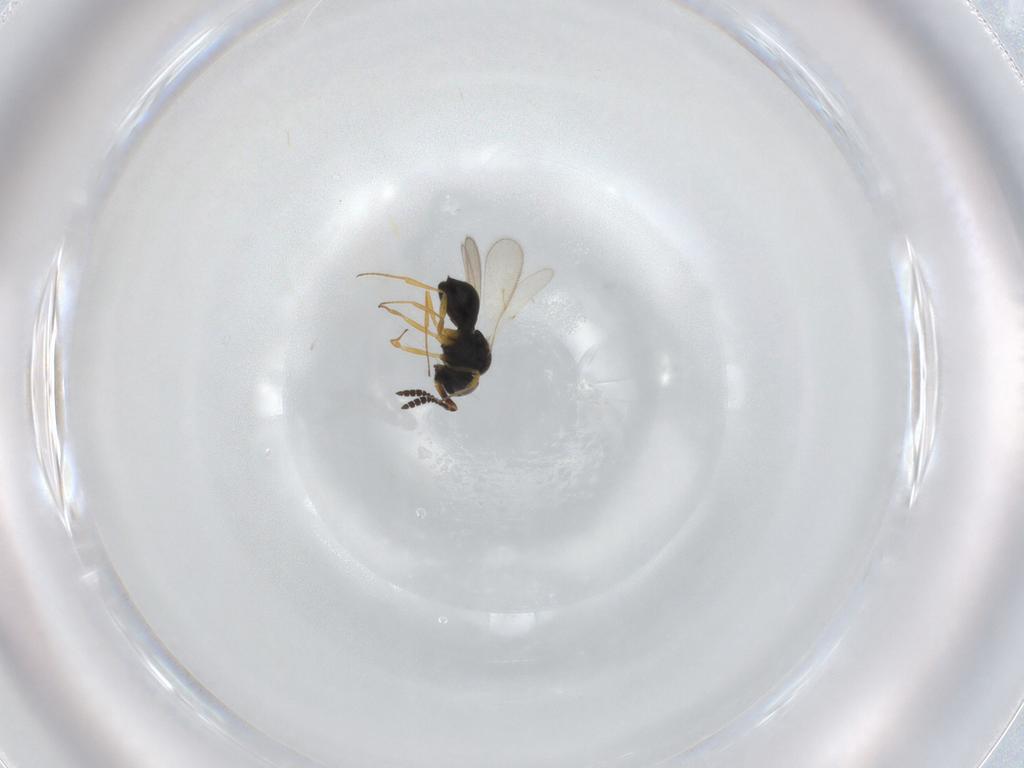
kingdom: Animalia
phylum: Arthropoda
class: Insecta
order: Hymenoptera
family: Scelionidae
